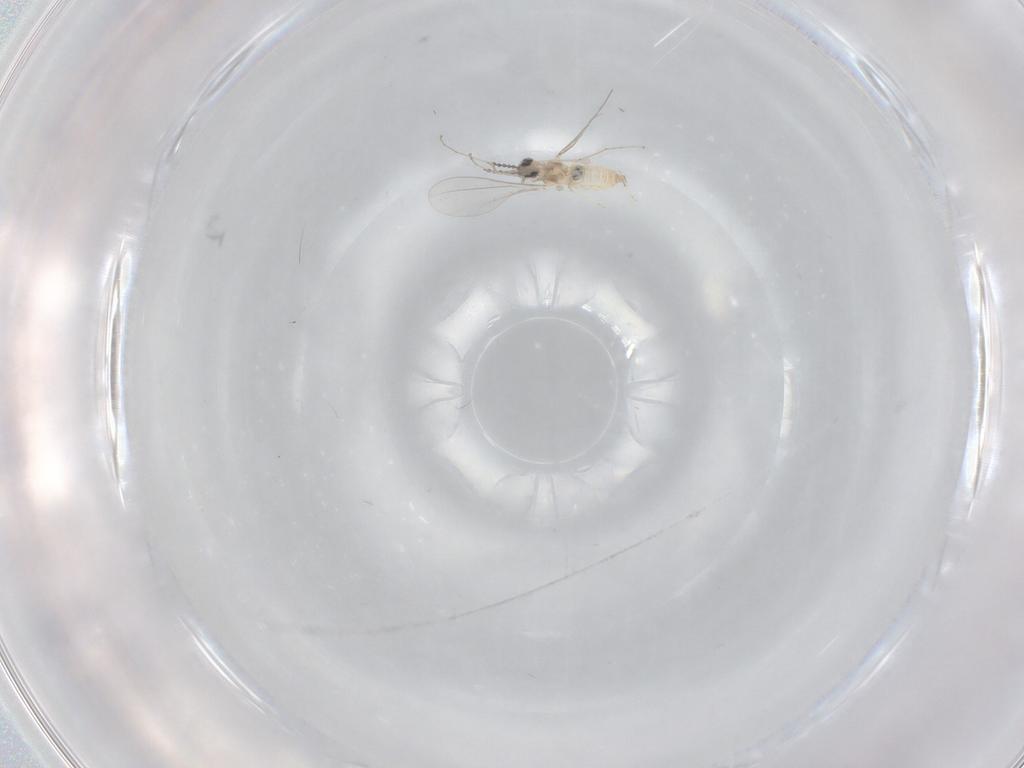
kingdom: Animalia
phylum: Arthropoda
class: Insecta
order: Diptera
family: Cecidomyiidae
